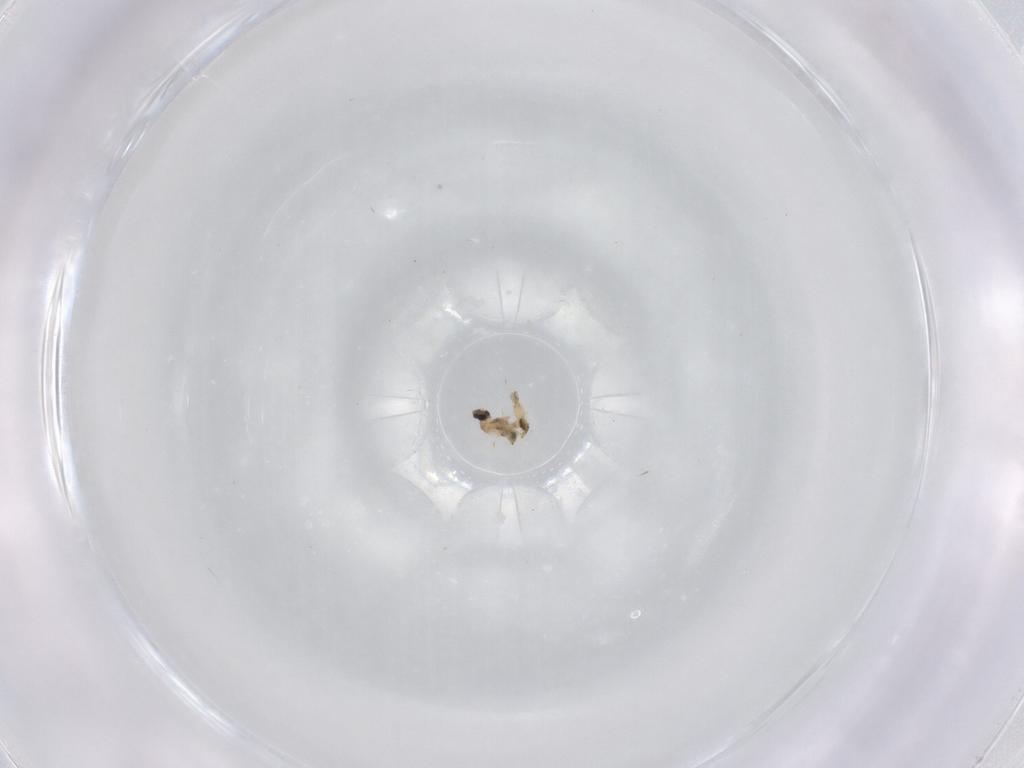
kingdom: Animalia
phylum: Arthropoda
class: Insecta
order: Diptera
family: Cecidomyiidae
